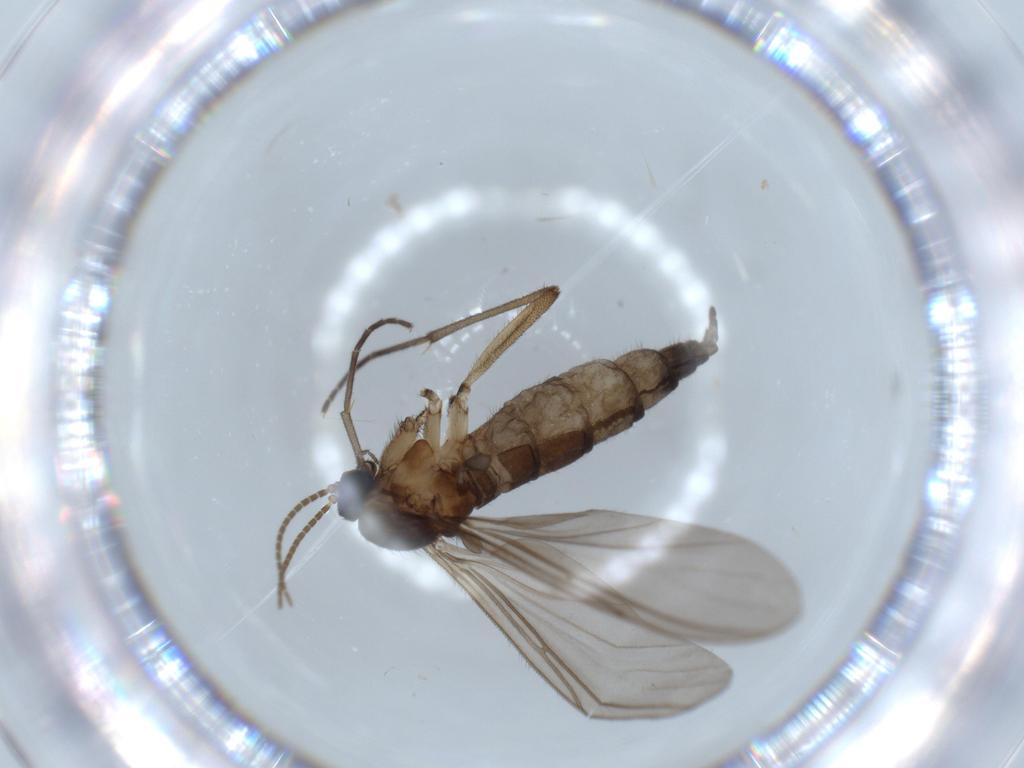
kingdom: Animalia
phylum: Arthropoda
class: Insecta
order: Diptera
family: Sciaridae
